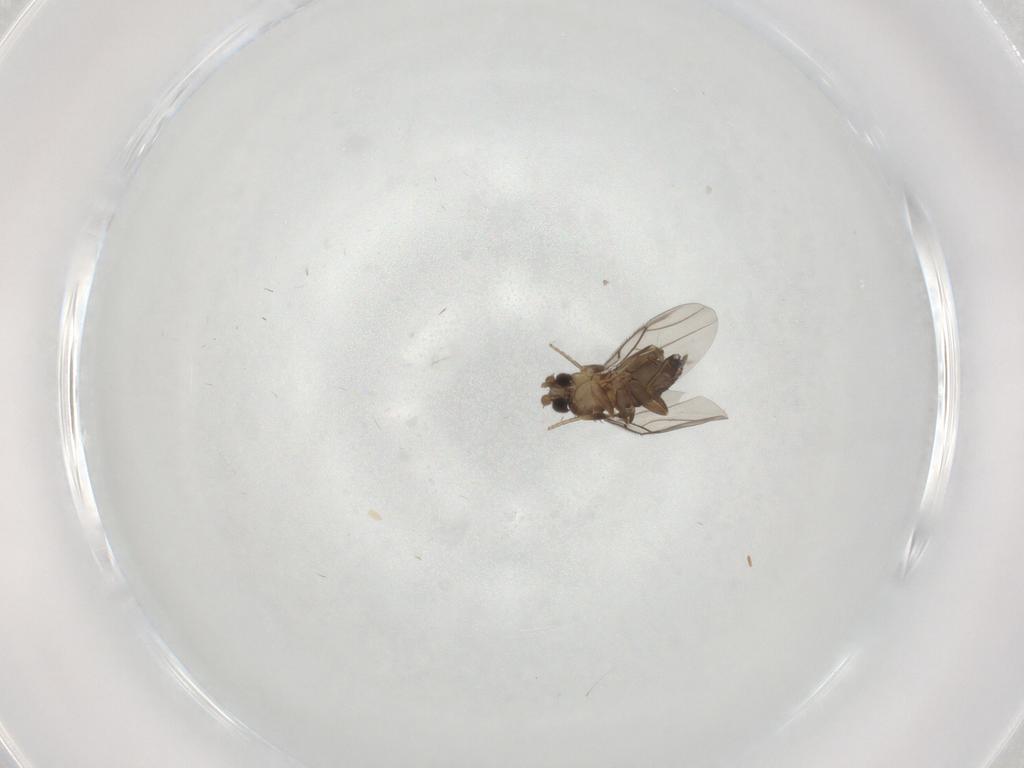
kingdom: Animalia
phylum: Arthropoda
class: Insecta
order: Diptera
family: Phoridae
